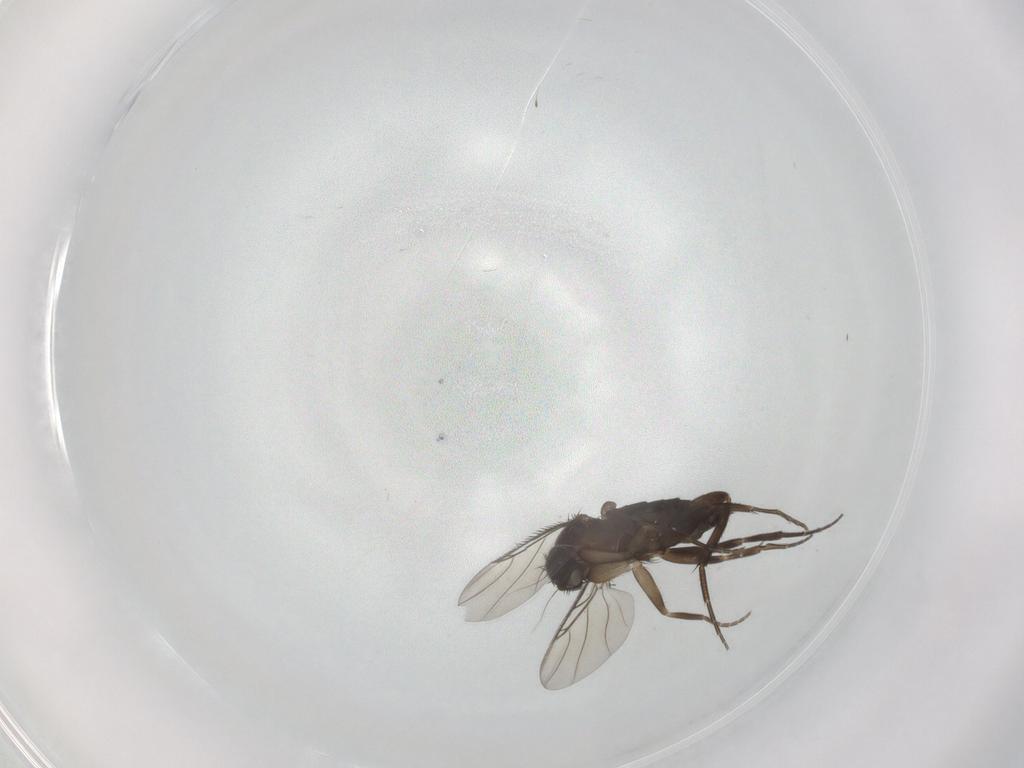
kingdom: Animalia
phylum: Arthropoda
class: Insecta
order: Diptera
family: Phoridae
